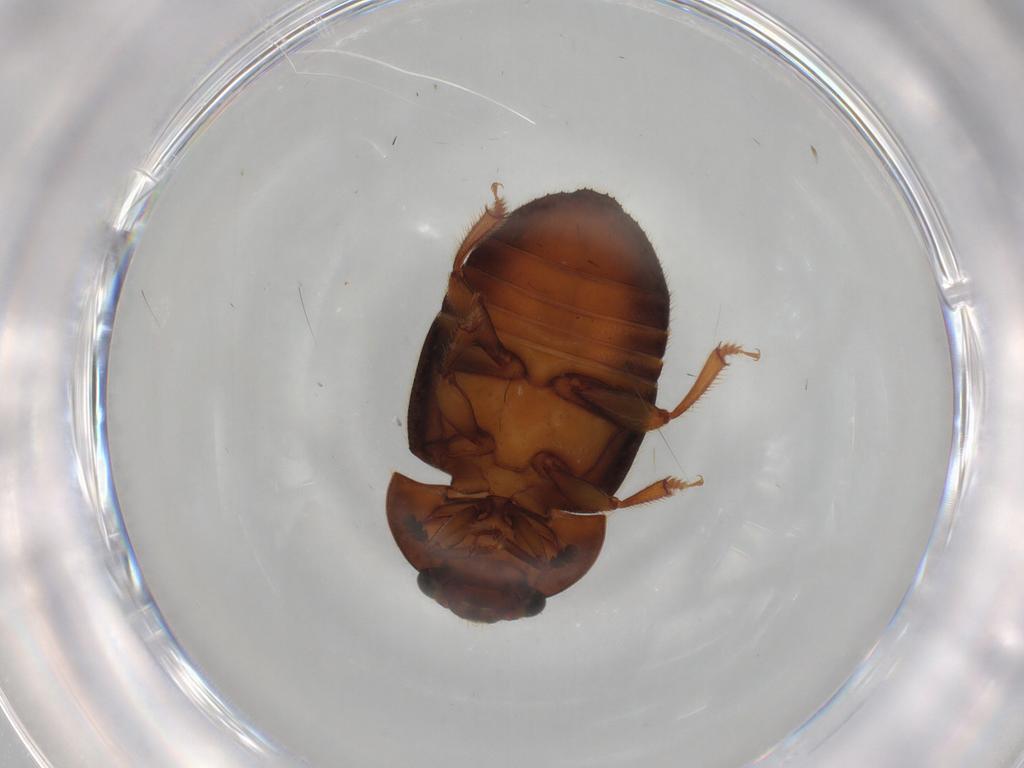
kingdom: Animalia
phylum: Arthropoda
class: Insecta
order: Coleoptera
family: Nitidulidae
